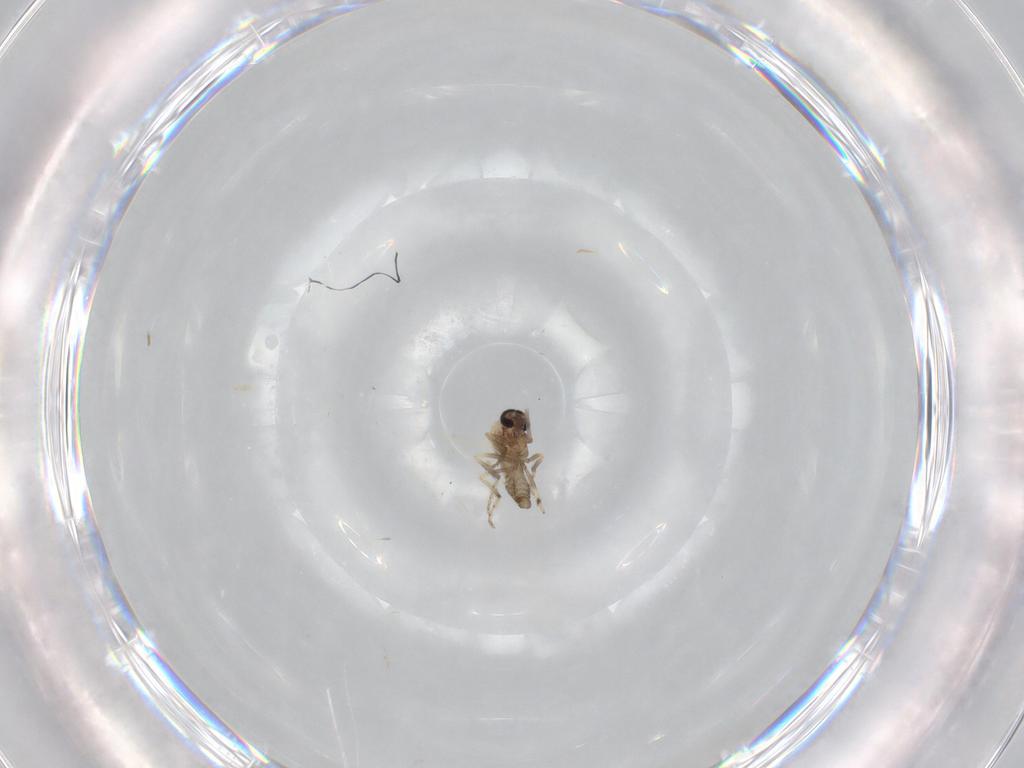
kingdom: Animalia
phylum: Arthropoda
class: Insecta
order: Diptera
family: Ceratopogonidae
